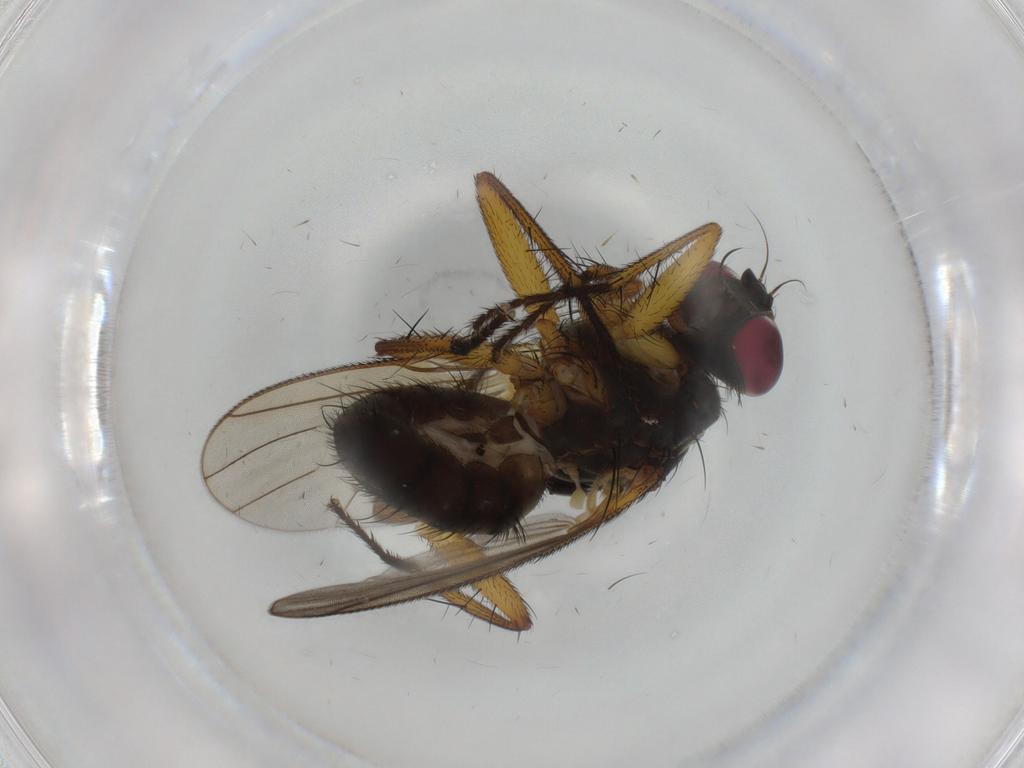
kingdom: Animalia
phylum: Arthropoda
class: Insecta
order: Diptera
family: Muscidae
